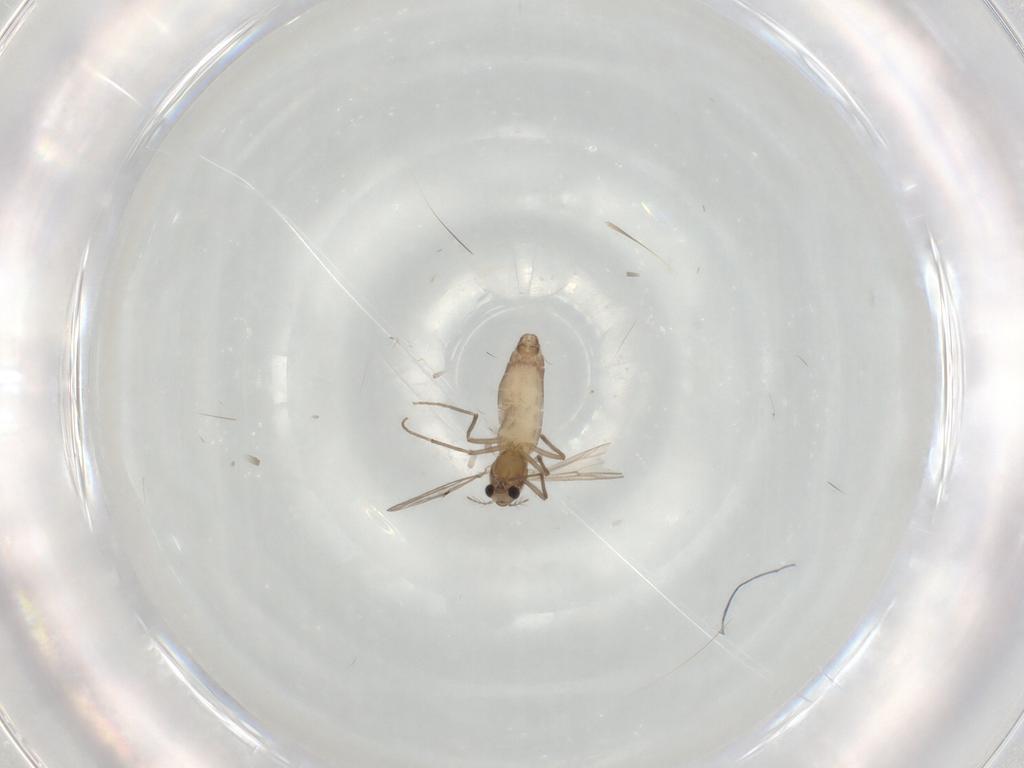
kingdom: Animalia
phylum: Arthropoda
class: Insecta
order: Diptera
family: Chironomidae
